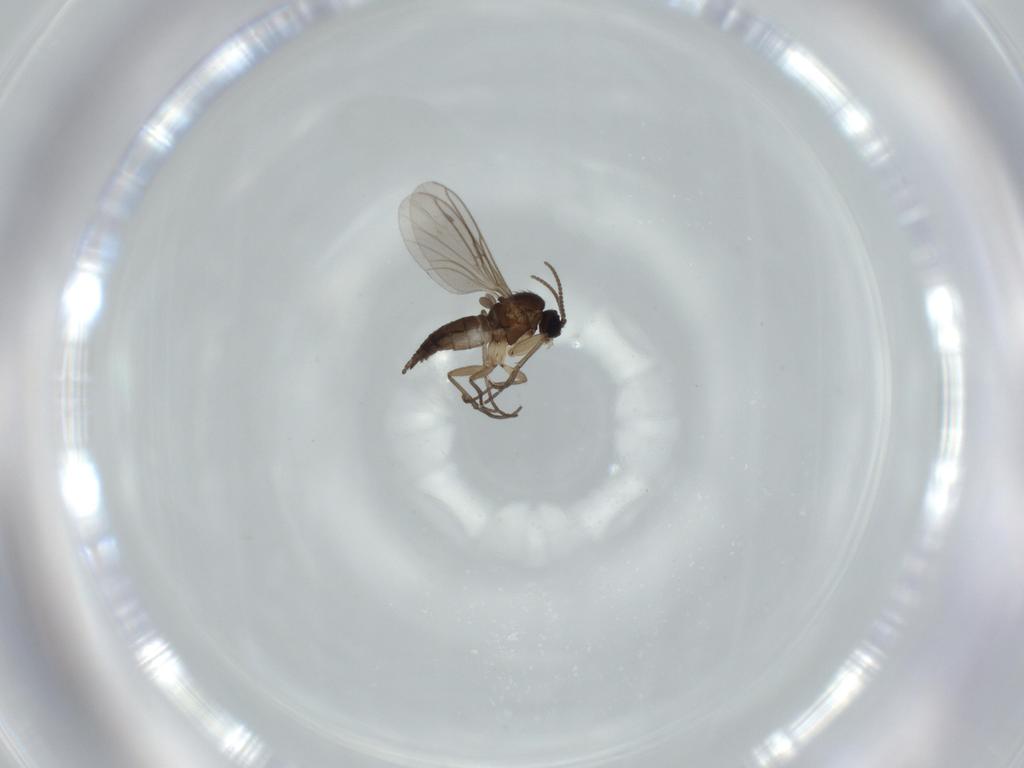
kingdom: Animalia
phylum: Arthropoda
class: Insecta
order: Diptera
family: Sciaridae
